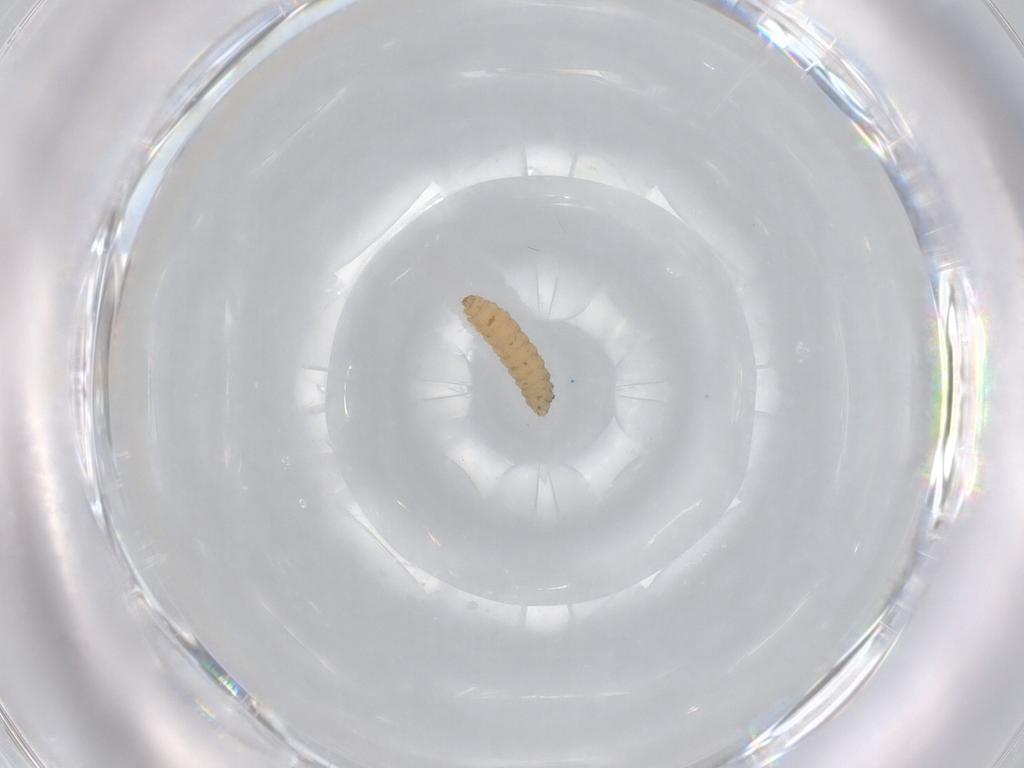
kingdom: Animalia
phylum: Arthropoda
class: Insecta
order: Diptera
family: Cecidomyiidae
